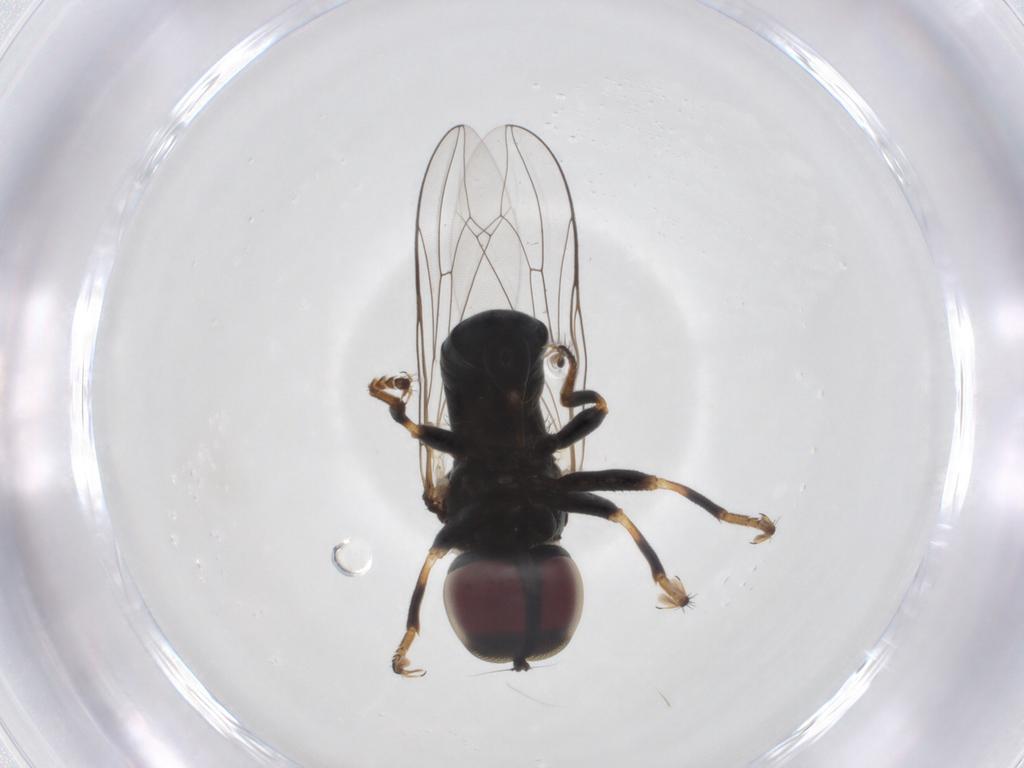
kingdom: Animalia
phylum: Arthropoda
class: Insecta
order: Diptera
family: Pipunculidae
